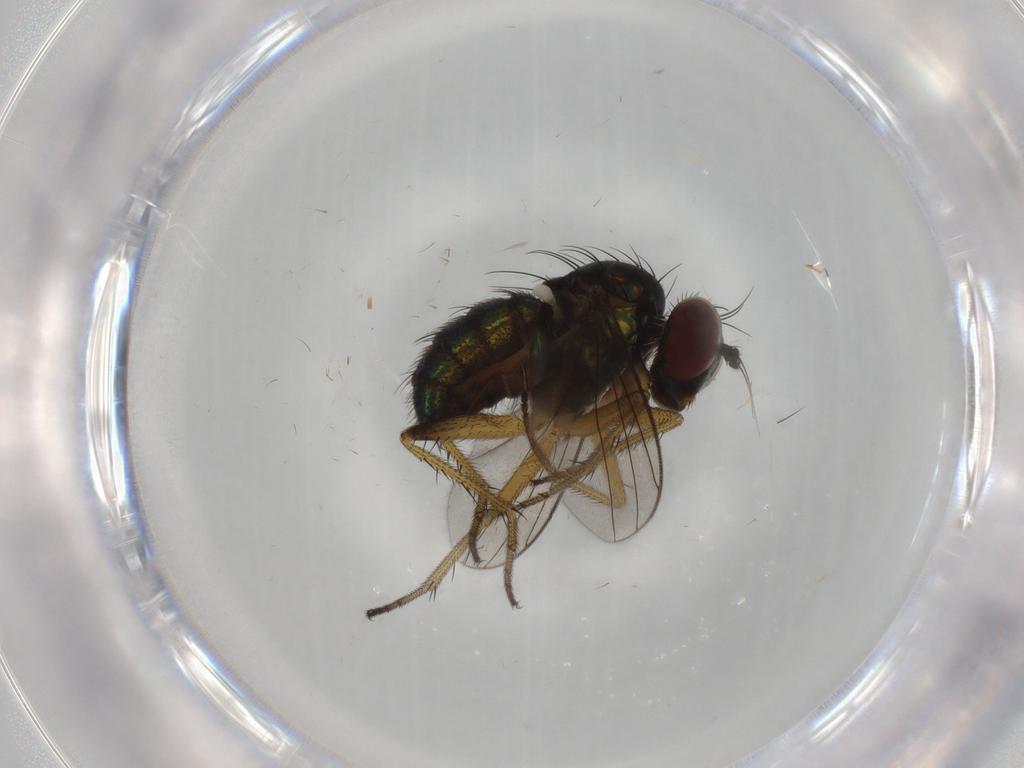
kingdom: Animalia
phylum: Arthropoda
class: Insecta
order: Diptera
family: Dolichopodidae
